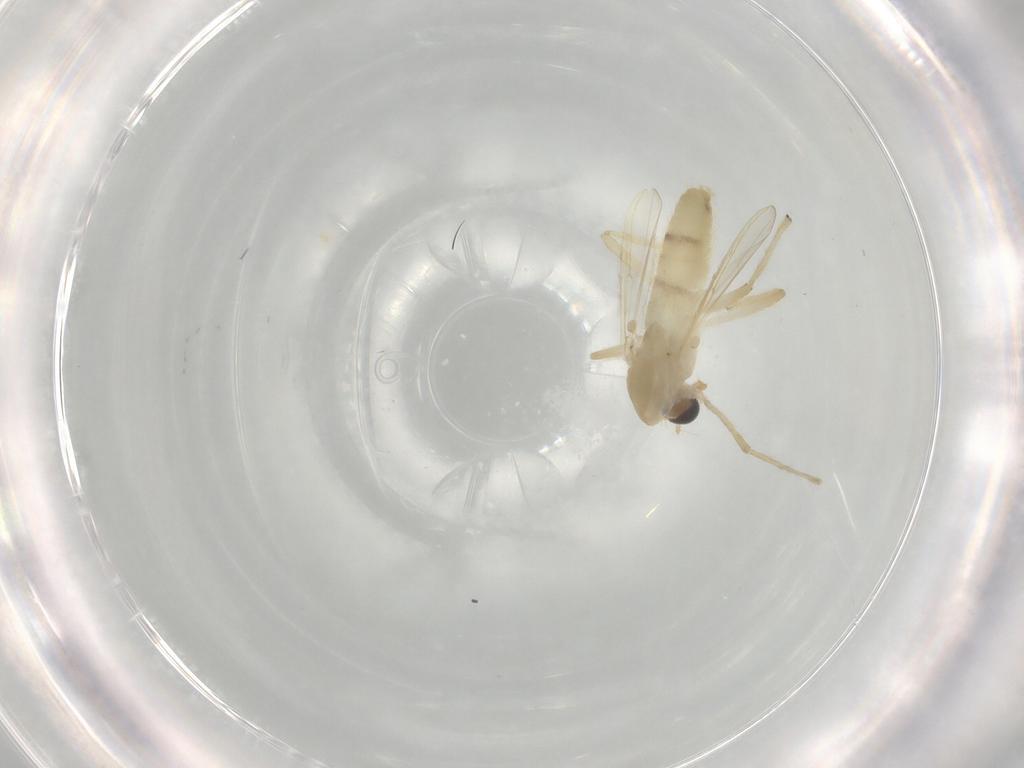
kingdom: Animalia
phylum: Arthropoda
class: Insecta
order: Diptera
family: Chironomidae
